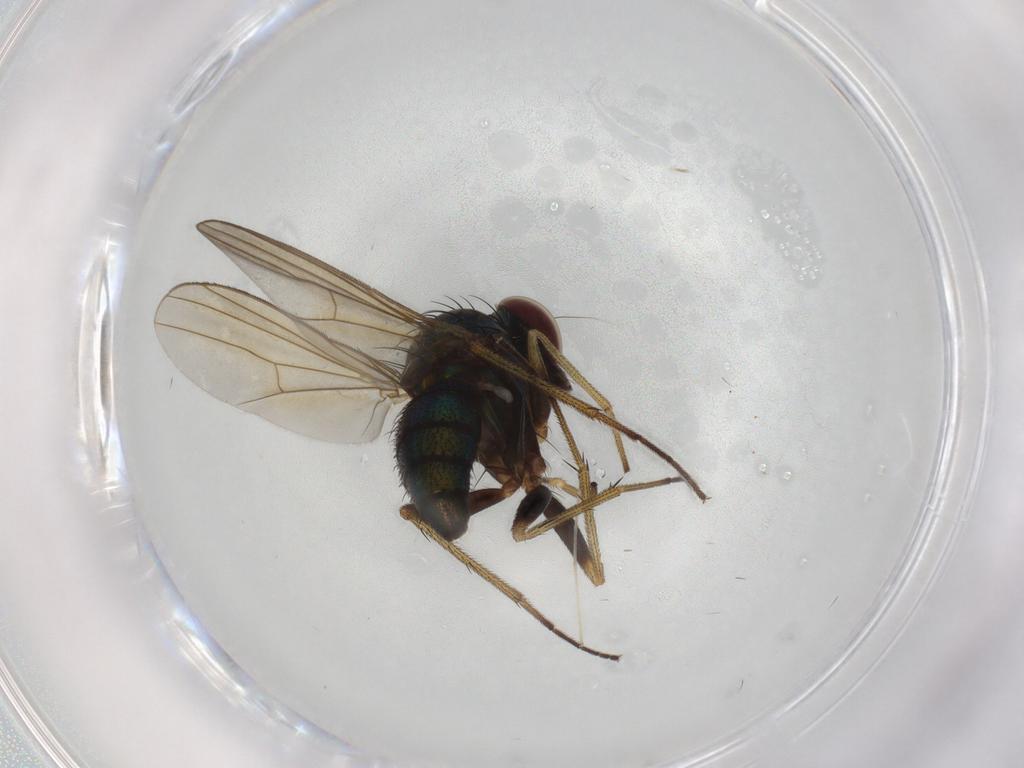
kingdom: Animalia
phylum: Arthropoda
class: Insecta
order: Diptera
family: Dolichopodidae
